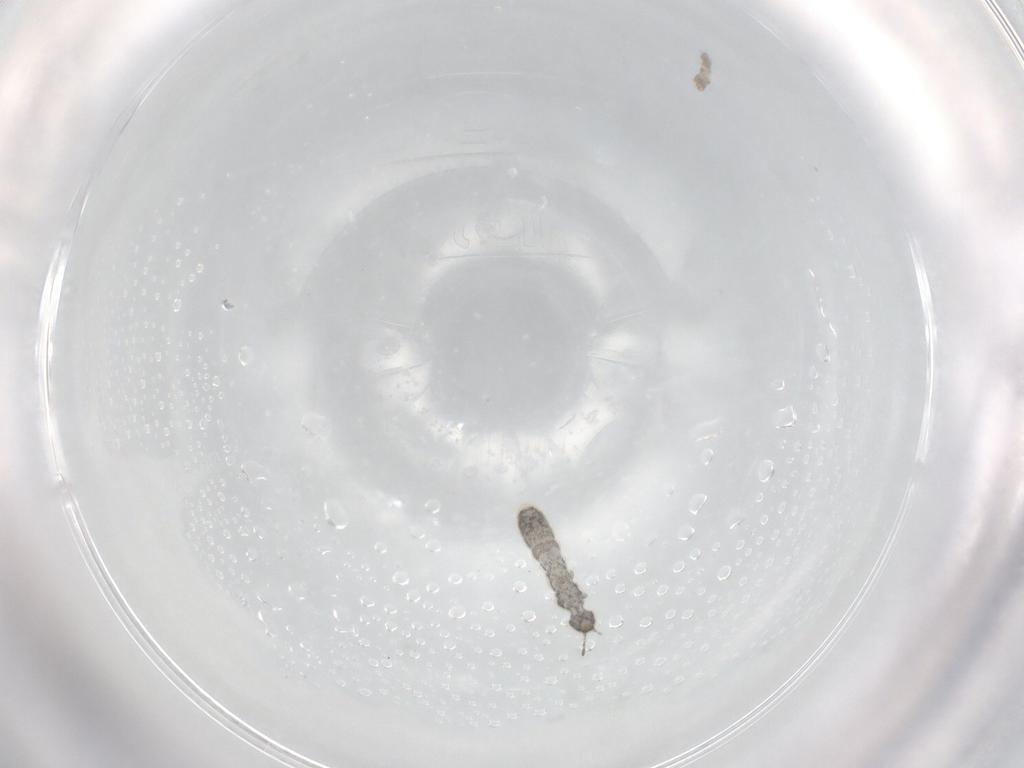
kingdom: Animalia
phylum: Arthropoda
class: Collembola
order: Entomobryomorpha
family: Isotomidae
